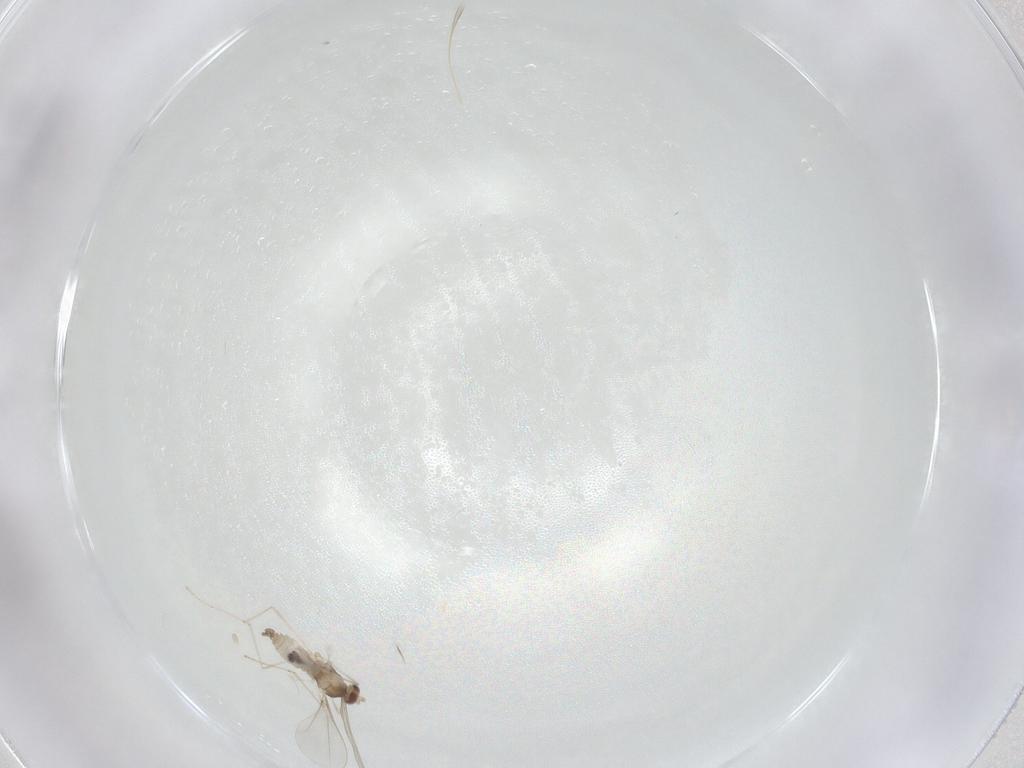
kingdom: Animalia
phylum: Arthropoda
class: Insecta
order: Diptera
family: Cecidomyiidae
